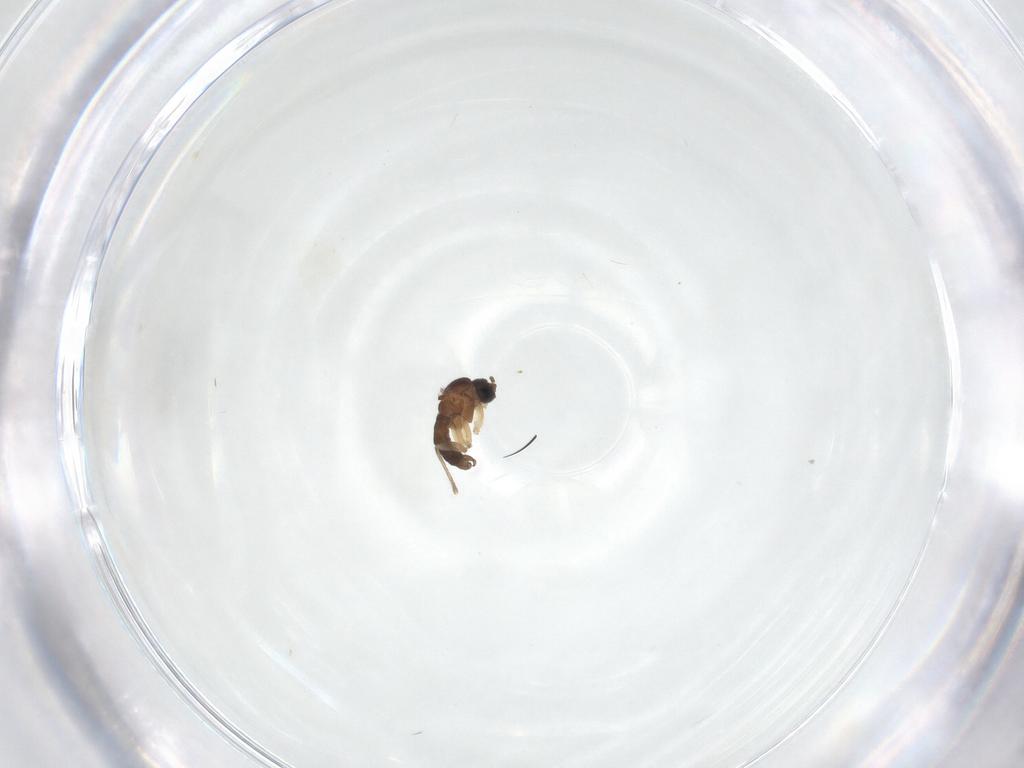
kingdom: Animalia
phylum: Arthropoda
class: Insecta
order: Diptera
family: Sciaridae
